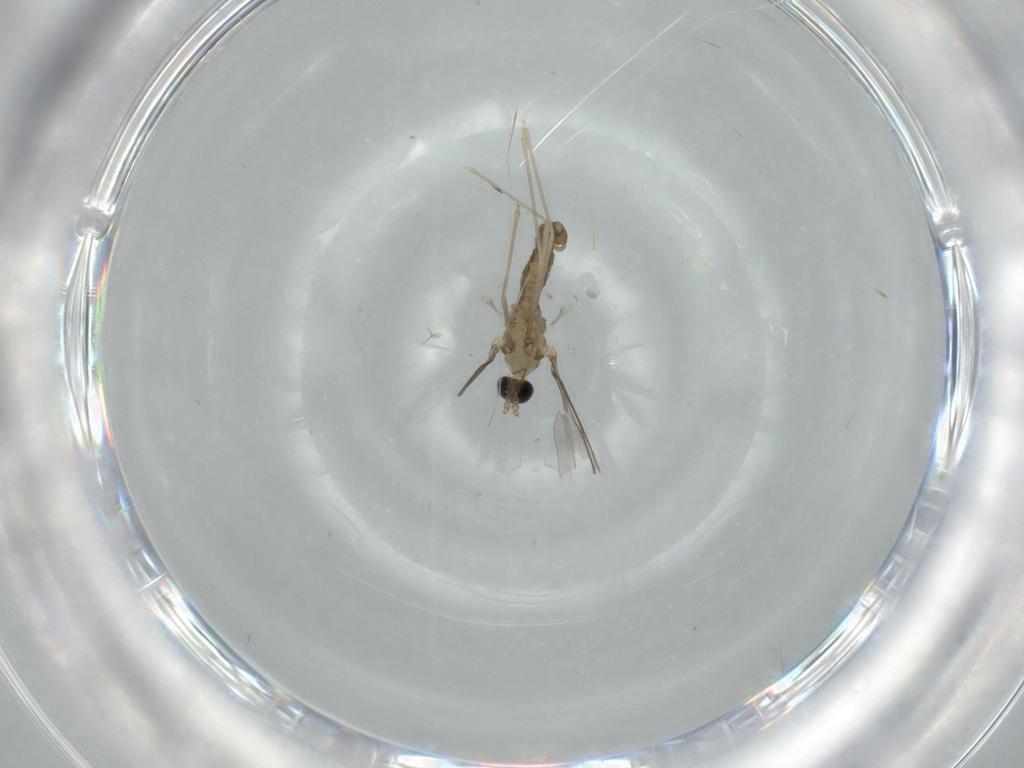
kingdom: Animalia
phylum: Arthropoda
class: Insecta
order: Diptera
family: Cecidomyiidae
